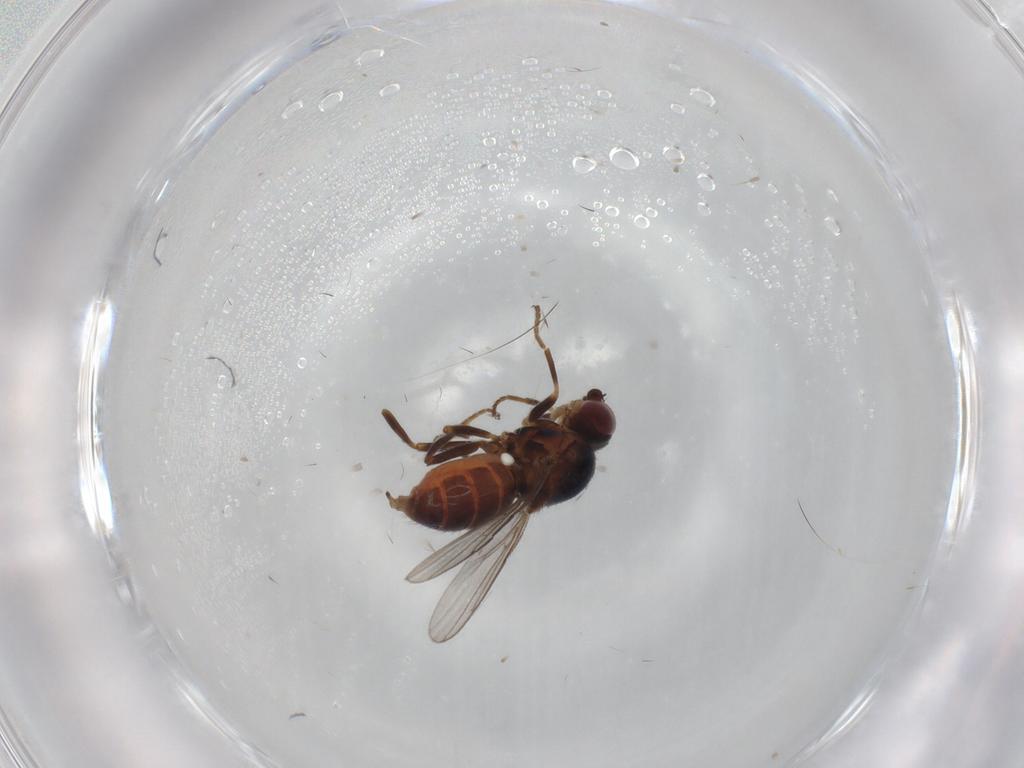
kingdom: Animalia
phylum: Arthropoda
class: Insecta
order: Diptera
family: Chloropidae
